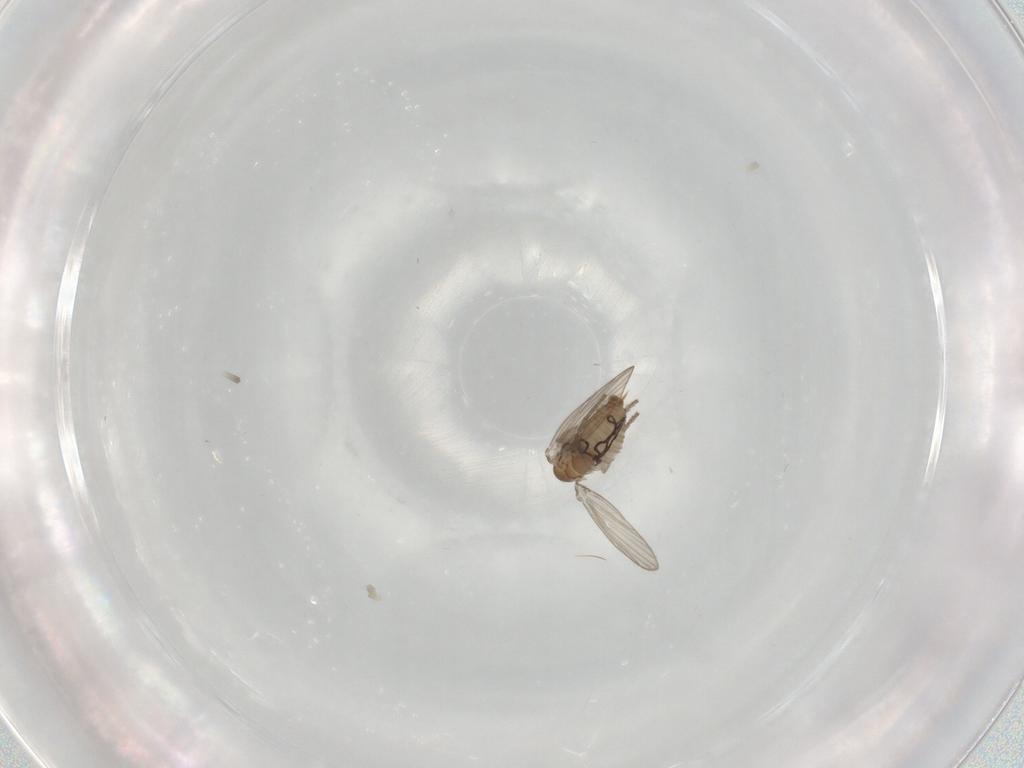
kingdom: Animalia
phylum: Arthropoda
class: Insecta
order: Diptera
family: Psychodidae
